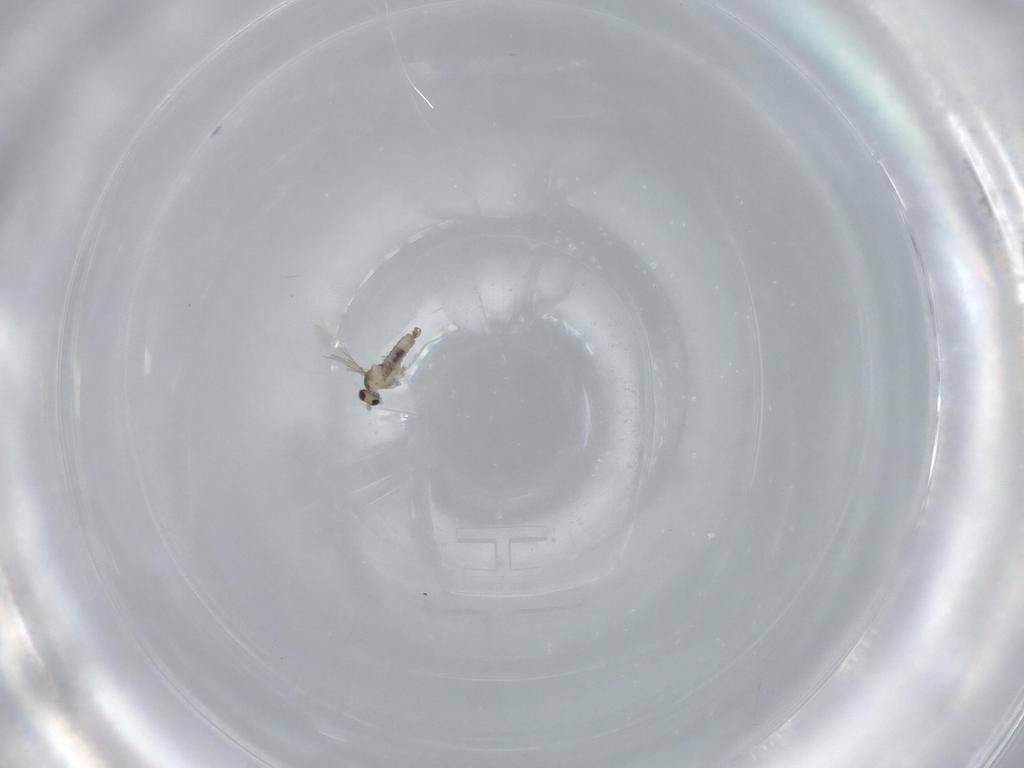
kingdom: Animalia
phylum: Arthropoda
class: Insecta
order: Diptera
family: Cecidomyiidae
